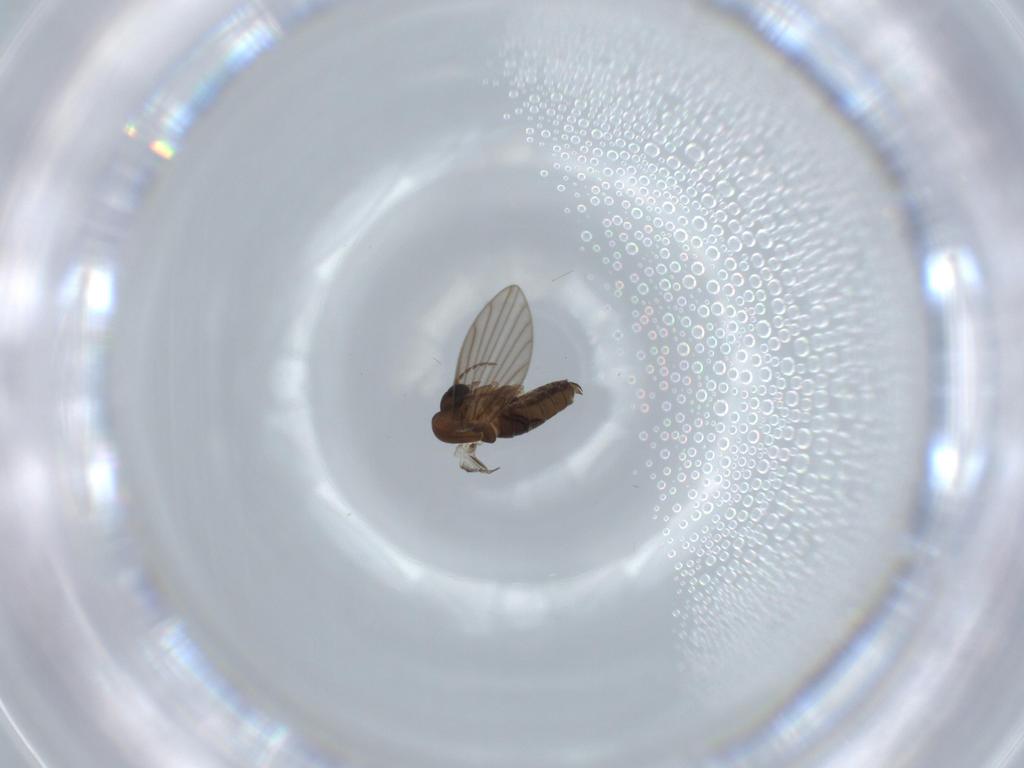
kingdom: Animalia
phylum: Arthropoda
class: Insecta
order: Diptera
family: Psychodidae
